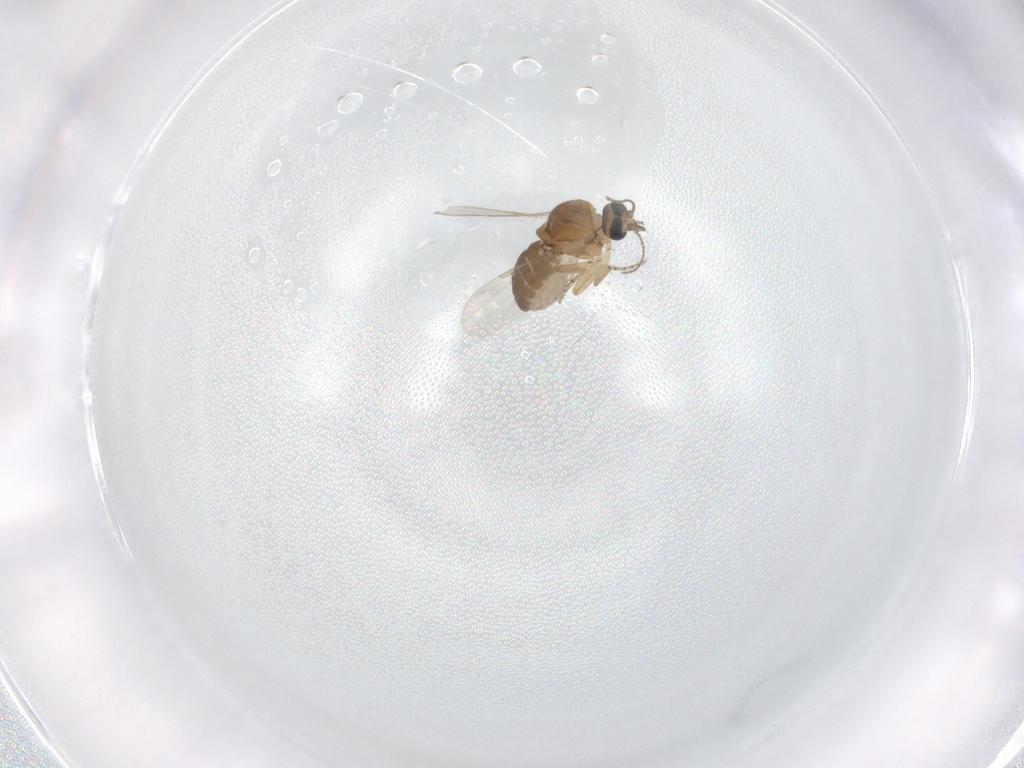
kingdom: Animalia
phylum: Arthropoda
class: Insecta
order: Diptera
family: Ceratopogonidae
